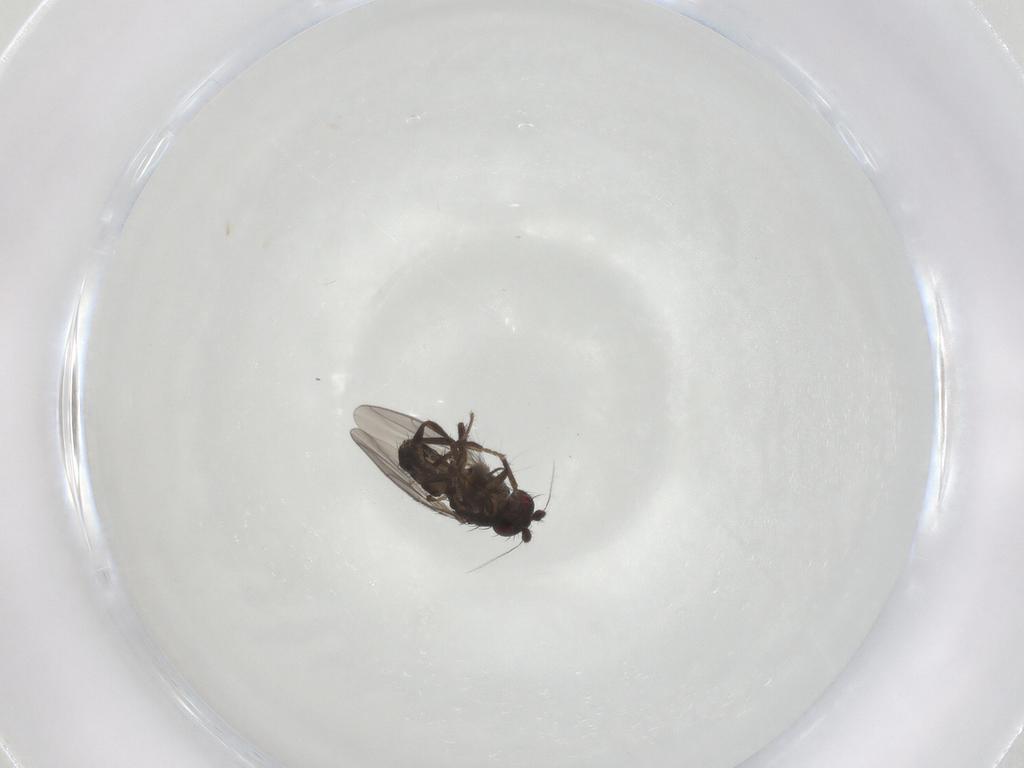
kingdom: Animalia
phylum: Arthropoda
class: Insecta
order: Diptera
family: Sphaeroceridae
